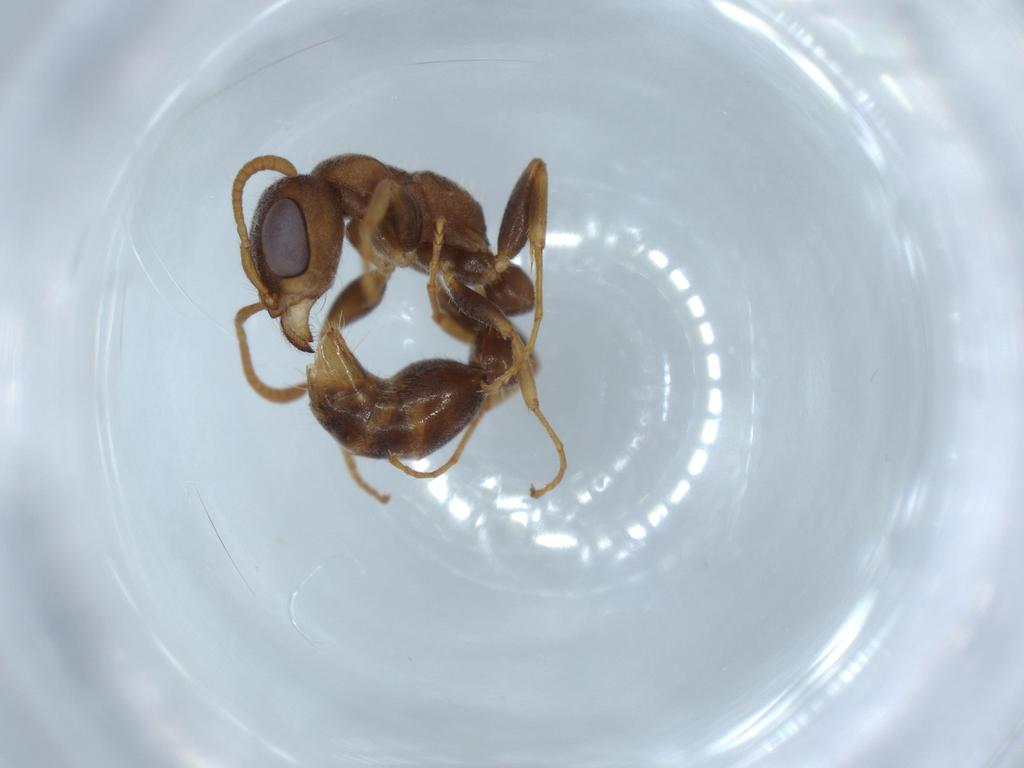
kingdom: Animalia
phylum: Arthropoda
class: Insecta
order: Hymenoptera
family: Formicidae
